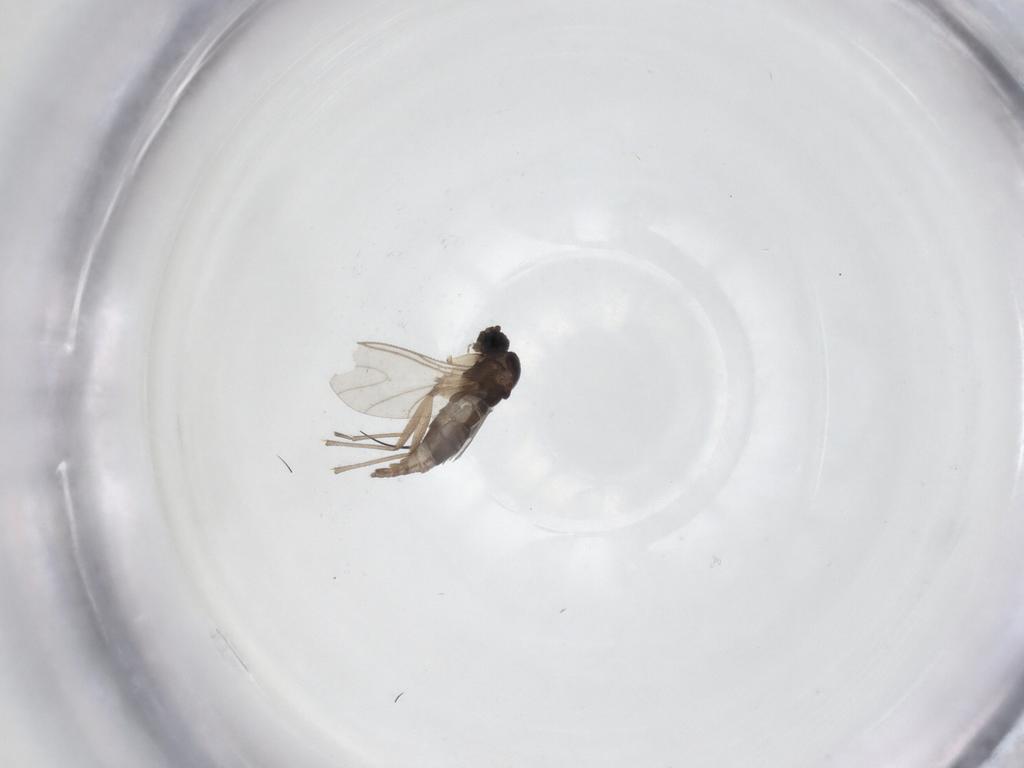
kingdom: Animalia
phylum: Arthropoda
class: Insecta
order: Diptera
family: Sciaridae
